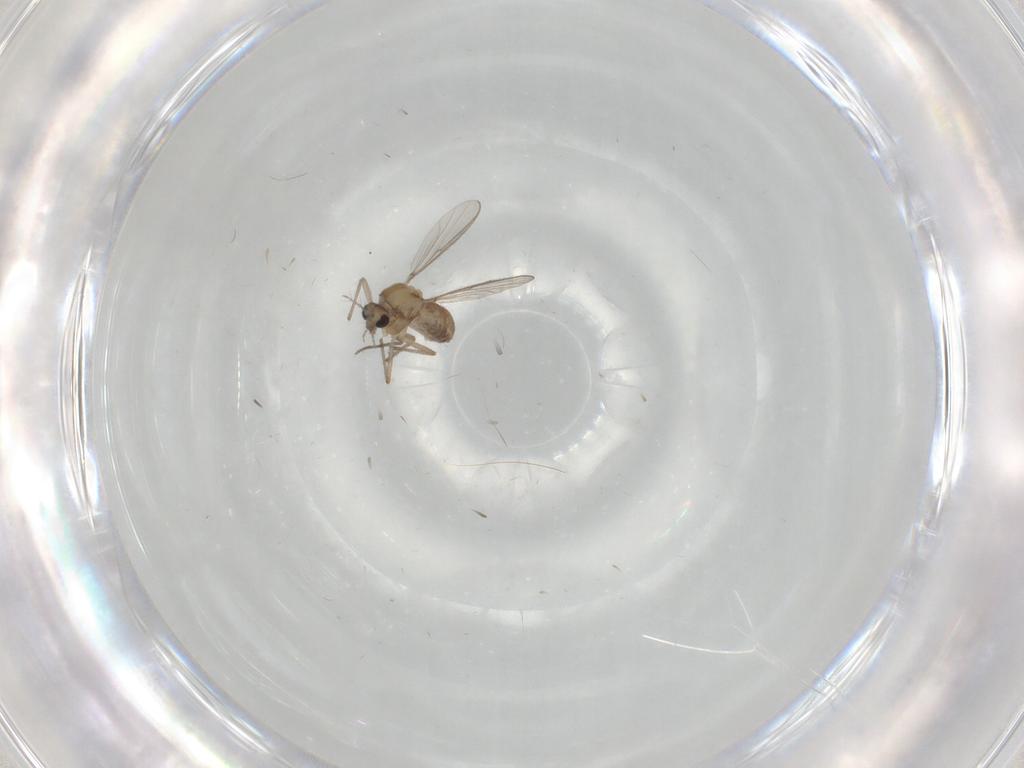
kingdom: Animalia
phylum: Arthropoda
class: Insecta
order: Diptera
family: Chironomidae
